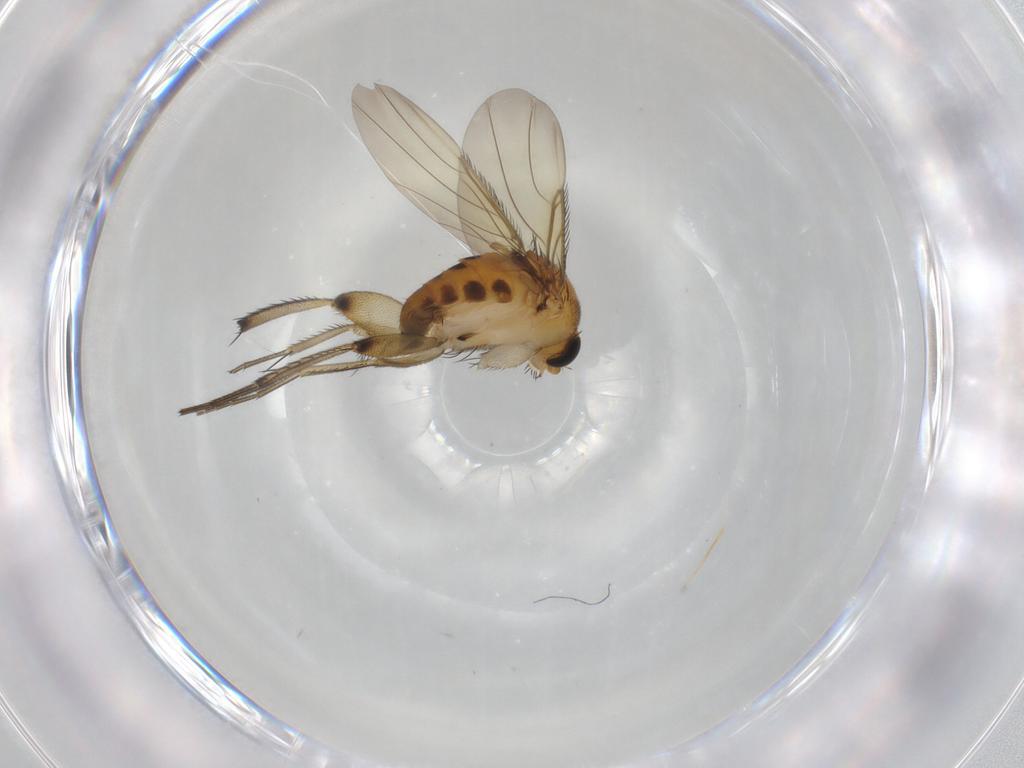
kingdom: Animalia
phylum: Arthropoda
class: Insecta
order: Diptera
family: Phoridae
